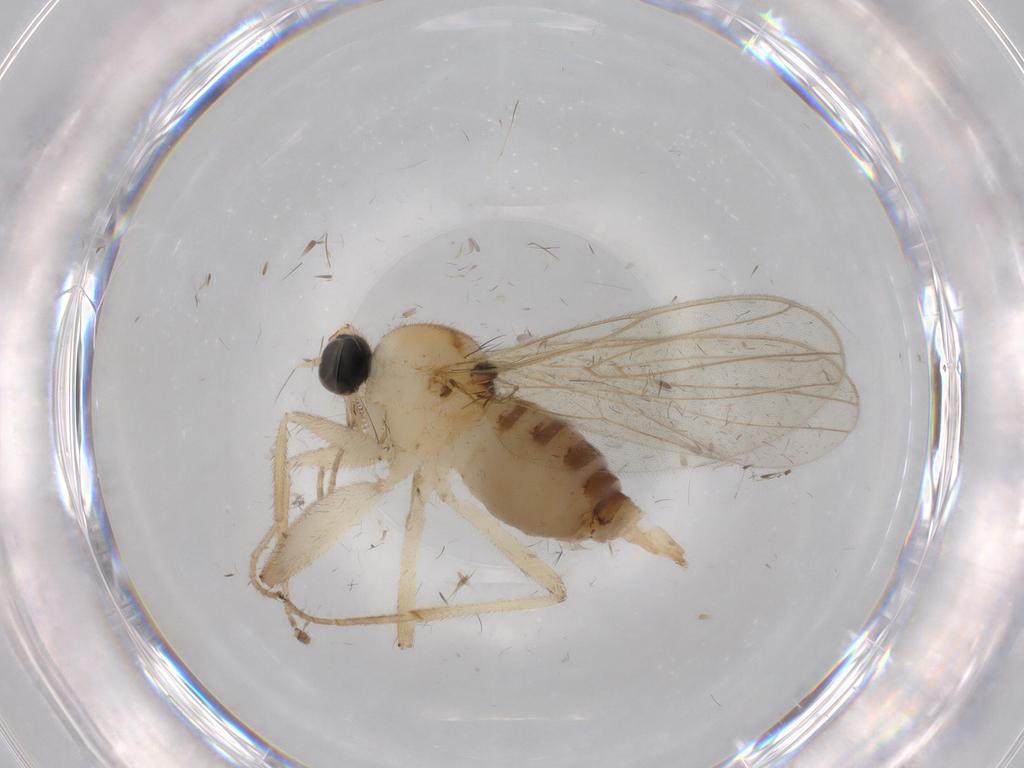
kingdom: Animalia
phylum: Arthropoda
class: Insecta
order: Diptera
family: Hybotidae
